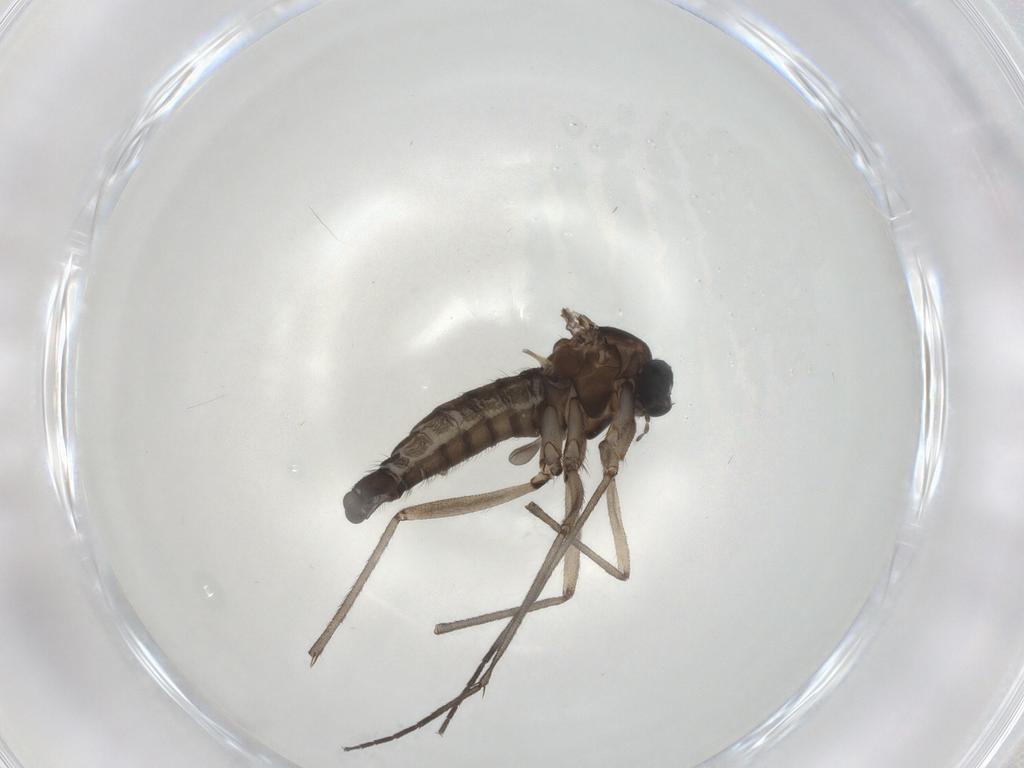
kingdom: Animalia
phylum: Arthropoda
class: Insecta
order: Diptera
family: Sciaridae
